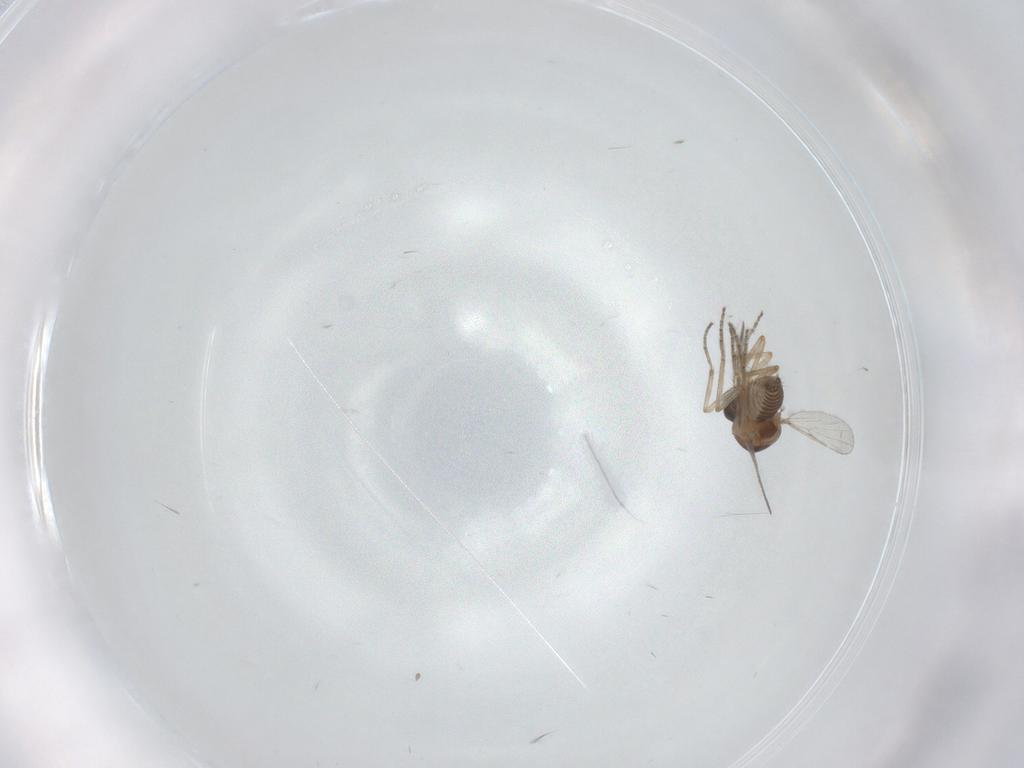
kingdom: Animalia
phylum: Arthropoda
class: Insecta
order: Diptera
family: Ceratopogonidae
